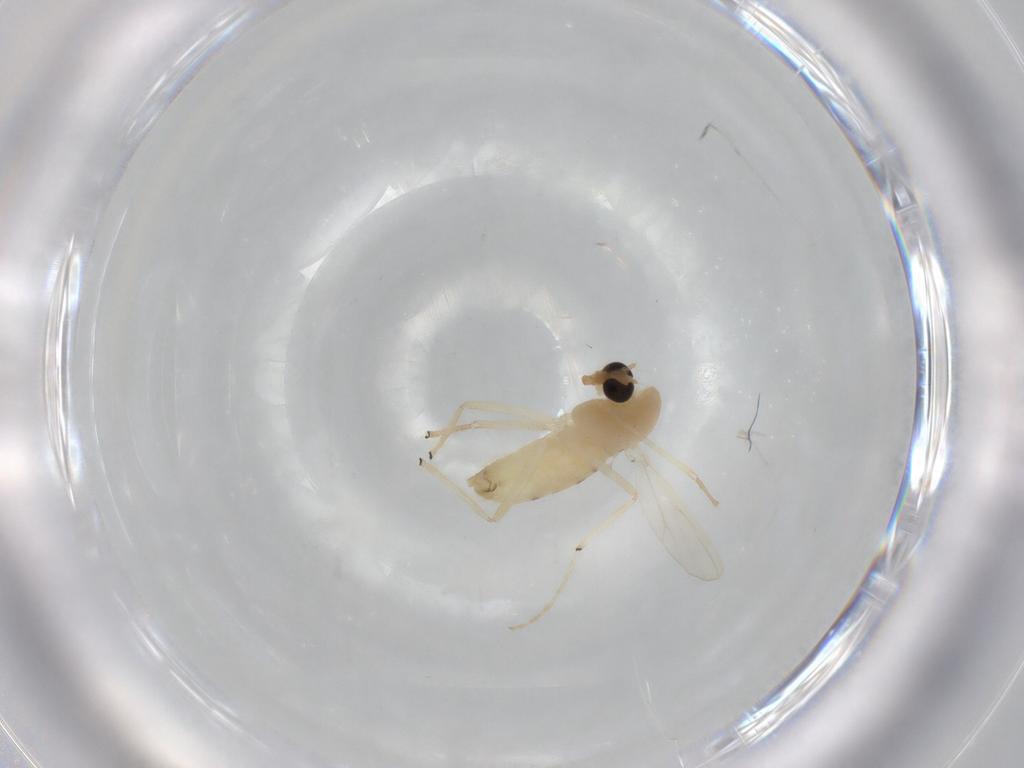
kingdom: Animalia
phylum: Arthropoda
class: Insecta
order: Diptera
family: Chironomidae
